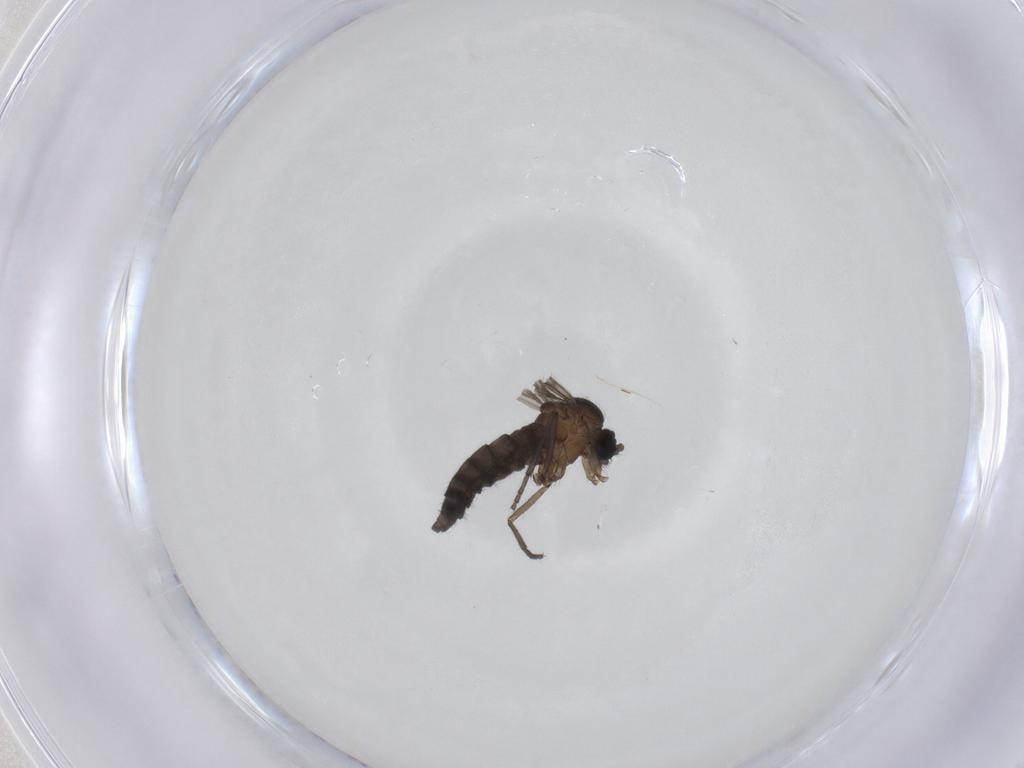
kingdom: Animalia
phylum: Arthropoda
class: Insecta
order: Diptera
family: Sciaridae
